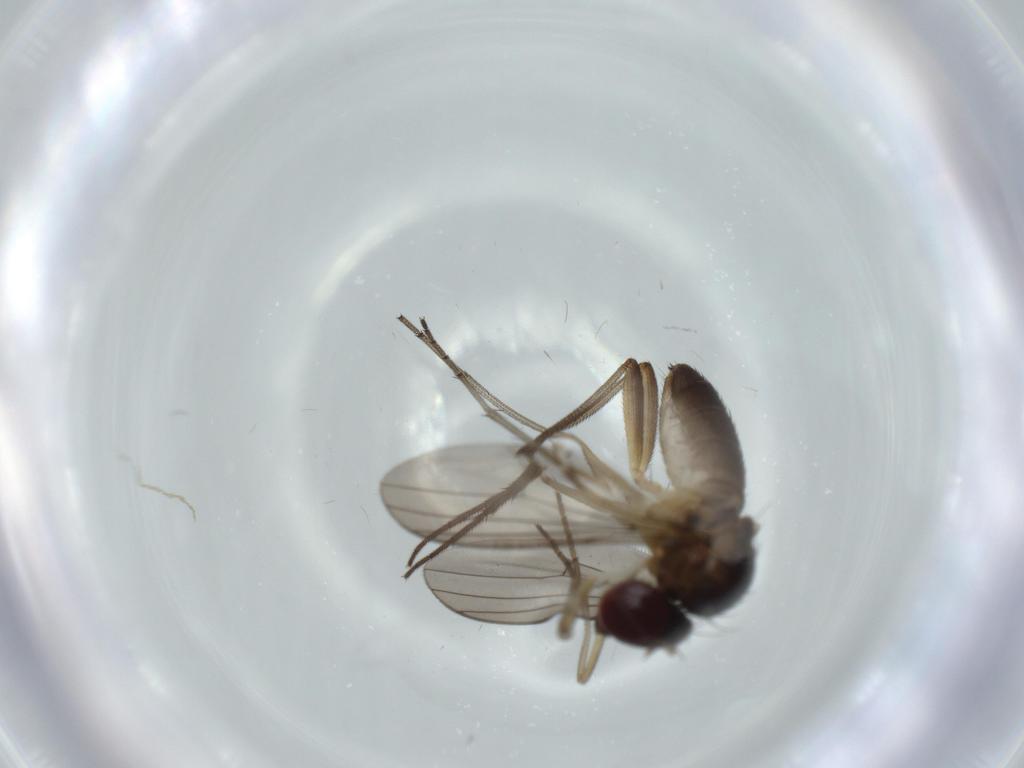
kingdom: Animalia
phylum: Arthropoda
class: Insecta
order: Diptera
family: Dolichopodidae
